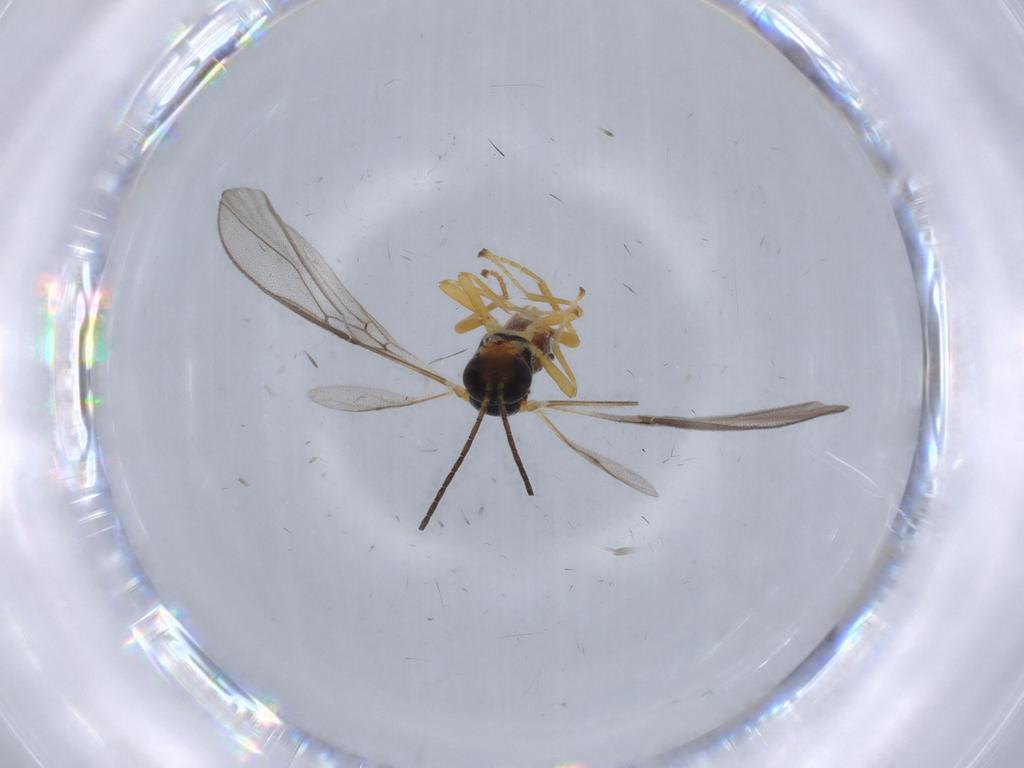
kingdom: Animalia
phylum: Arthropoda
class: Insecta
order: Hymenoptera
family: Braconidae
